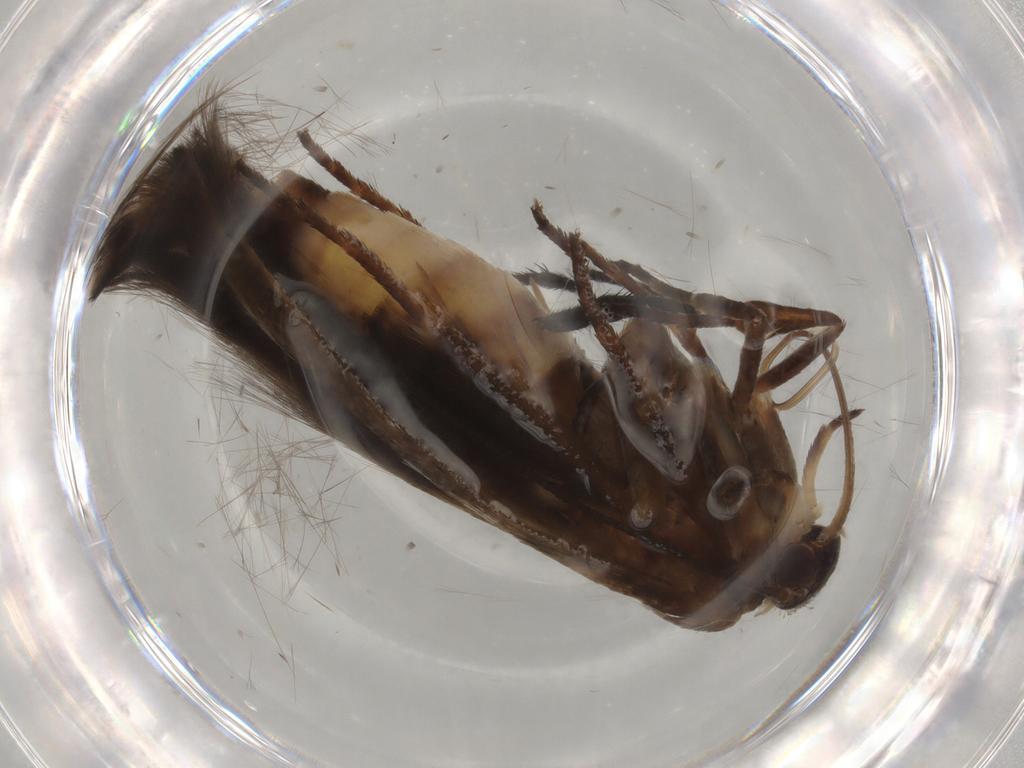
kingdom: Animalia
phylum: Arthropoda
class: Insecta
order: Lepidoptera
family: Scythrididae
